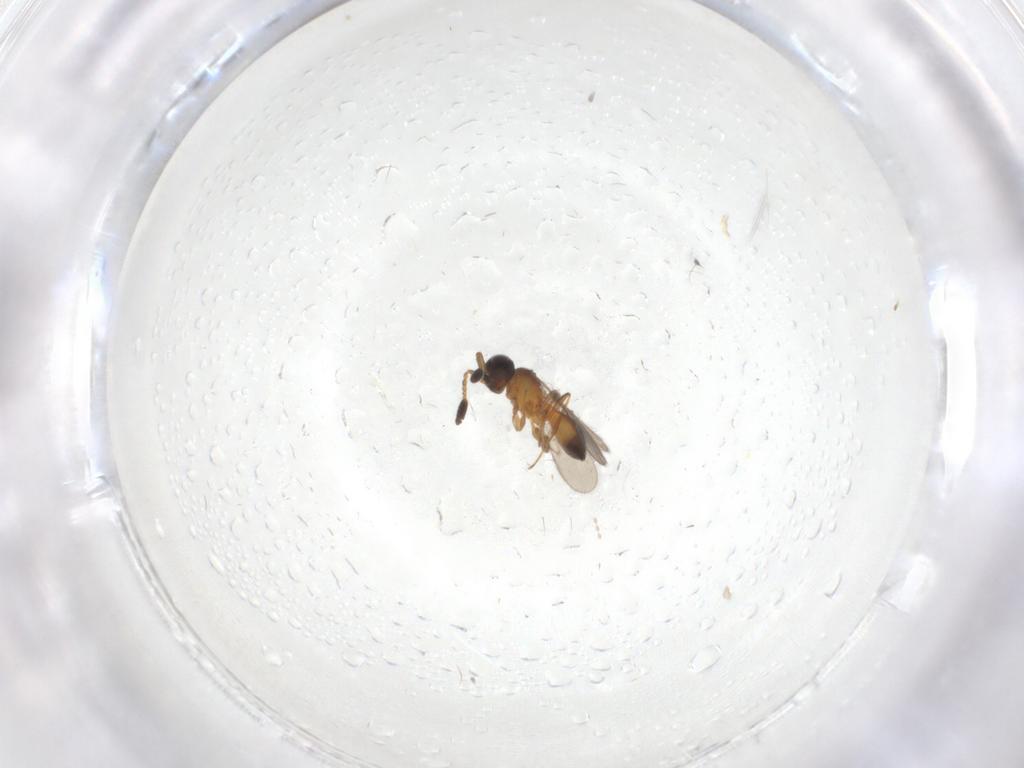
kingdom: Animalia
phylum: Arthropoda
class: Insecta
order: Hymenoptera
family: Scelionidae
